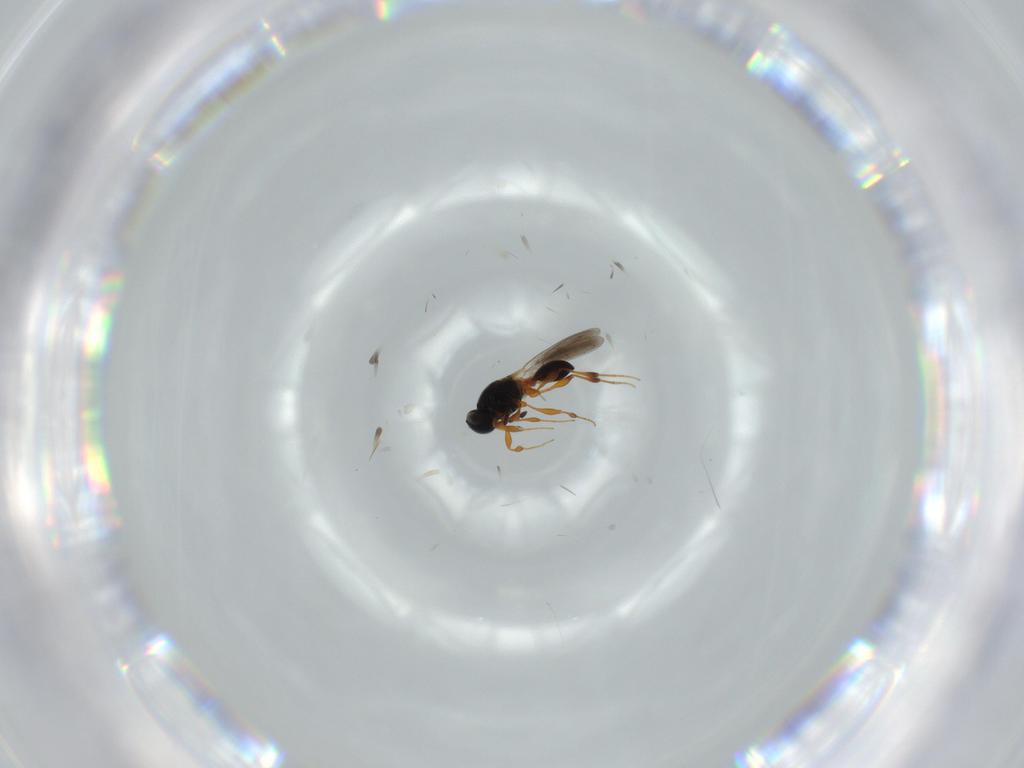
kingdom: Animalia
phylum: Arthropoda
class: Insecta
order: Hymenoptera
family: Platygastridae
